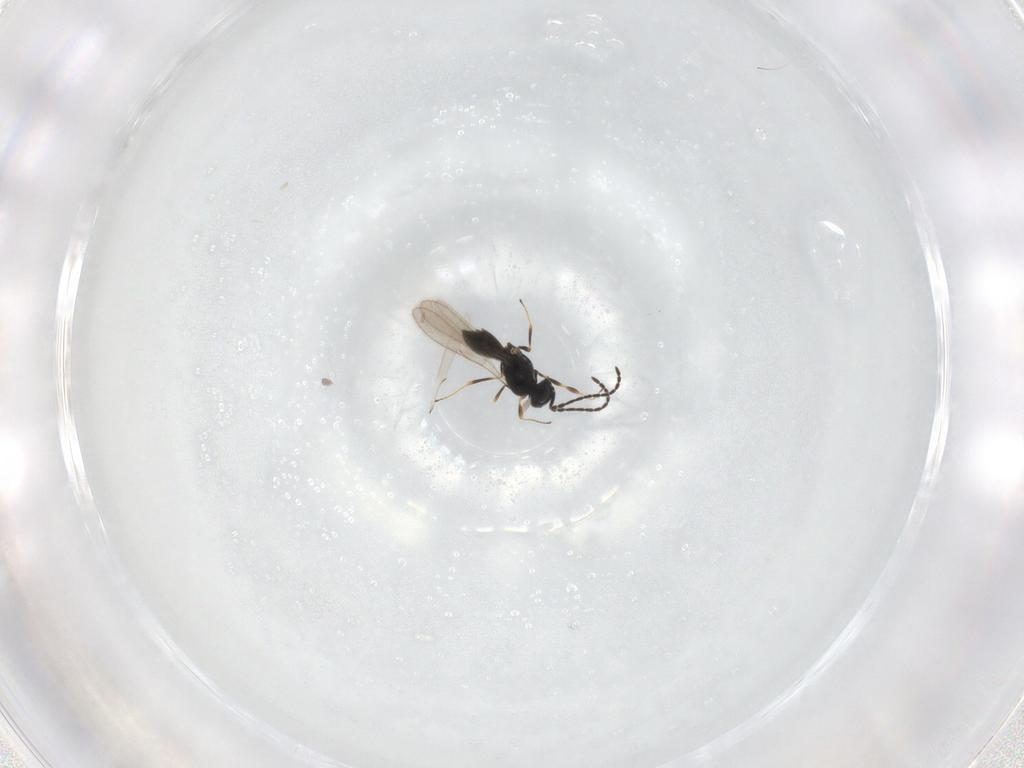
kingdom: Animalia
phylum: Arthropoda
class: Insecta
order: Hymenoptera
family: Scelionidae
